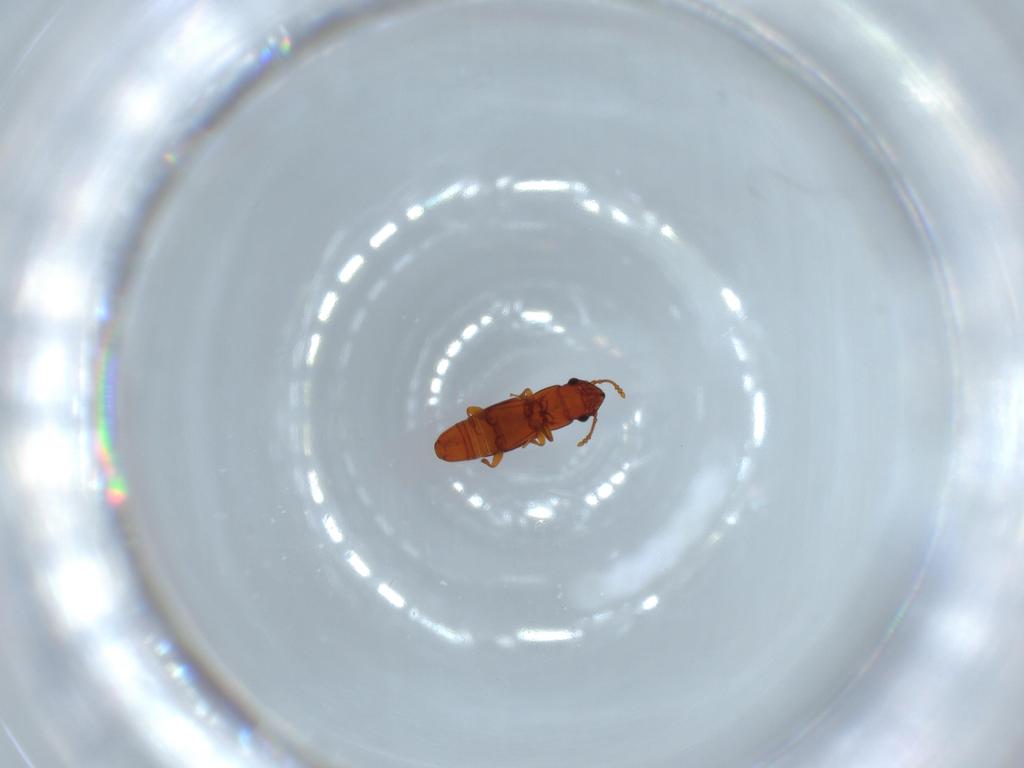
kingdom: Animalia
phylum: Arthropoda
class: Insecta
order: Coleoptera
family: Smicripidae
